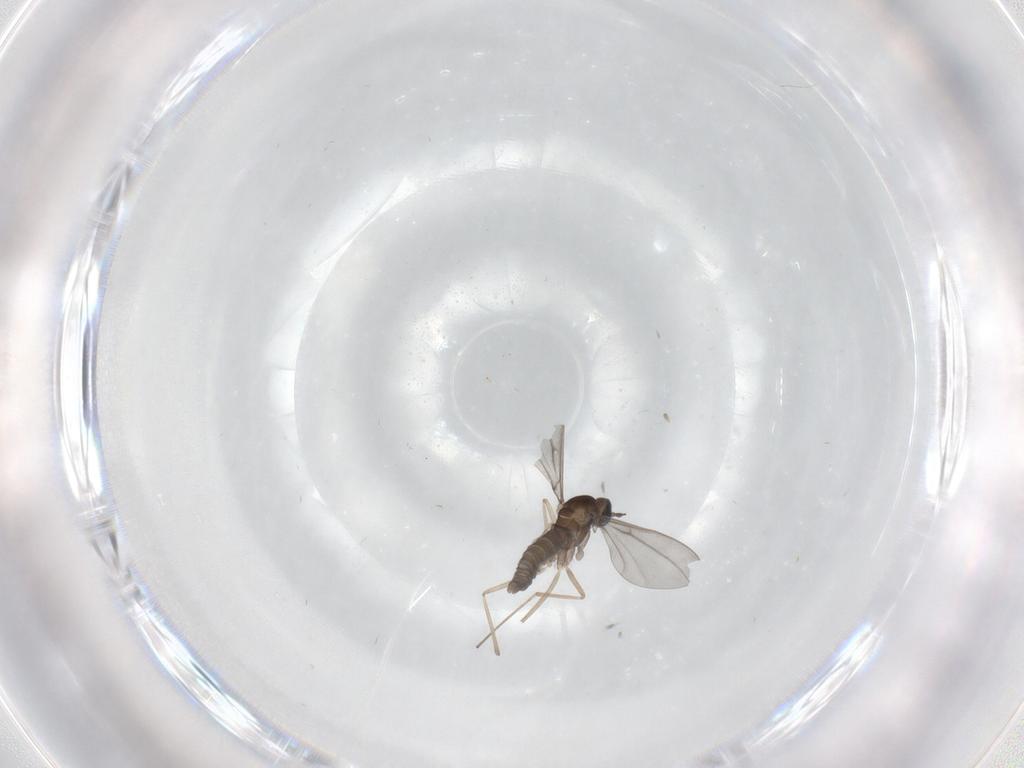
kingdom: Animalia
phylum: Arthropoda
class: Insecta
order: Diptera
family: Cecidomyiidae
